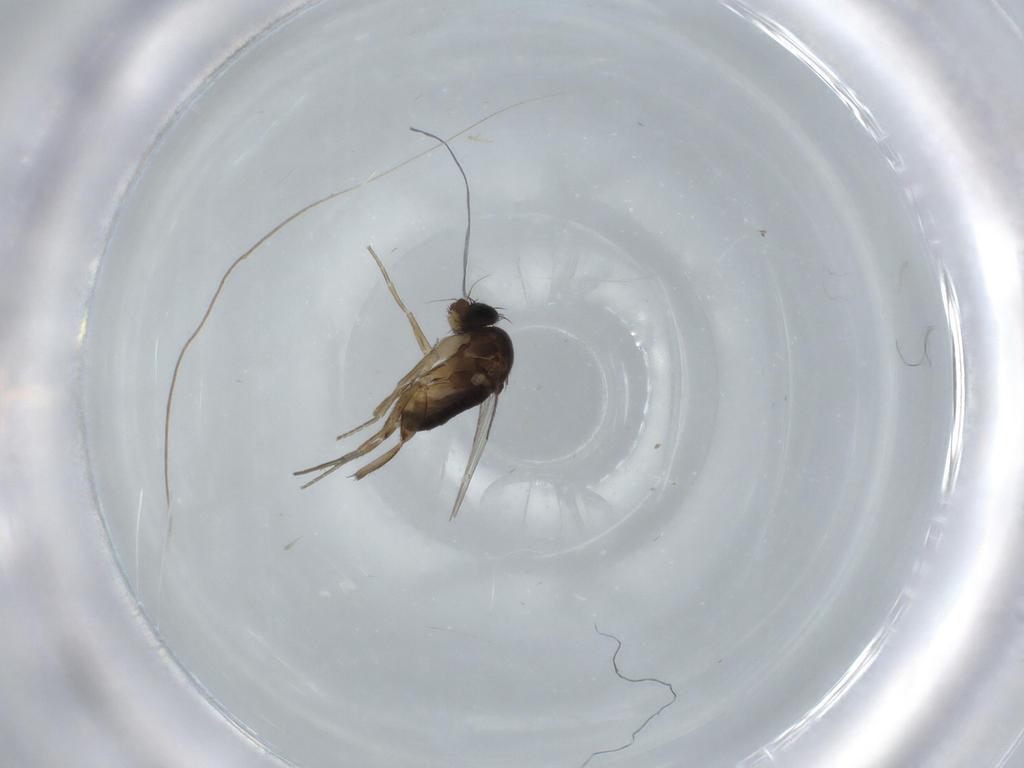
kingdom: Animalia
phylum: Arthropoda
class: Insecta
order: Diptera
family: Phoridae
